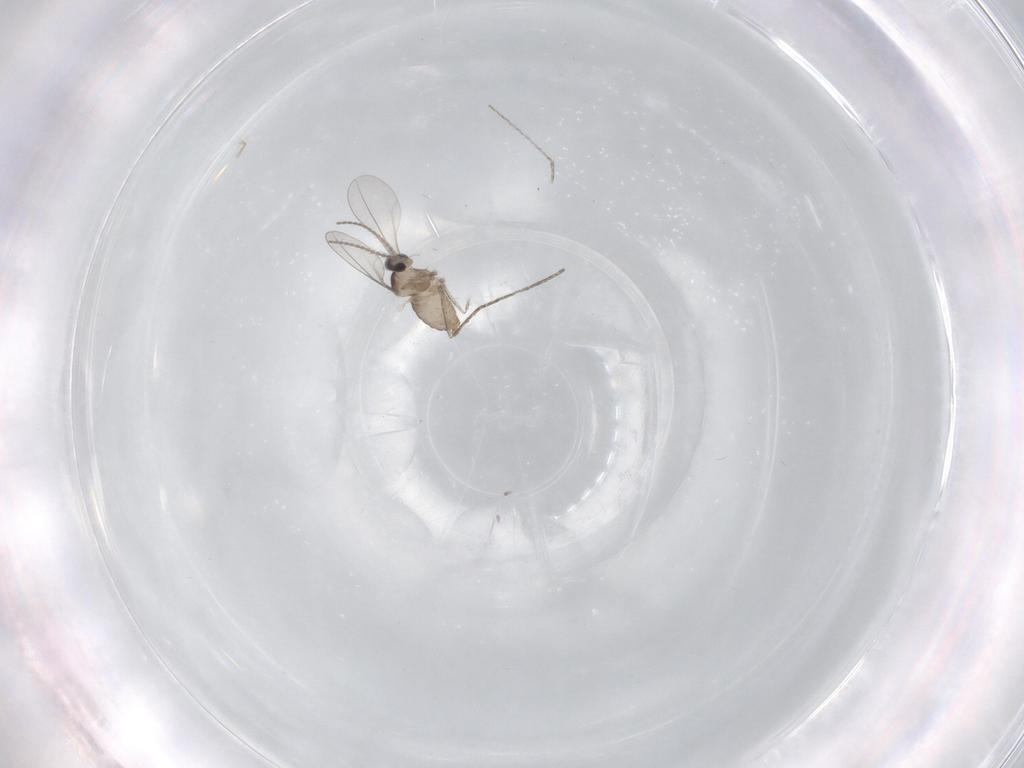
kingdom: Animalia
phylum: Arthropoda
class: Insecta
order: Diptera
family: Cecidomyiidae
